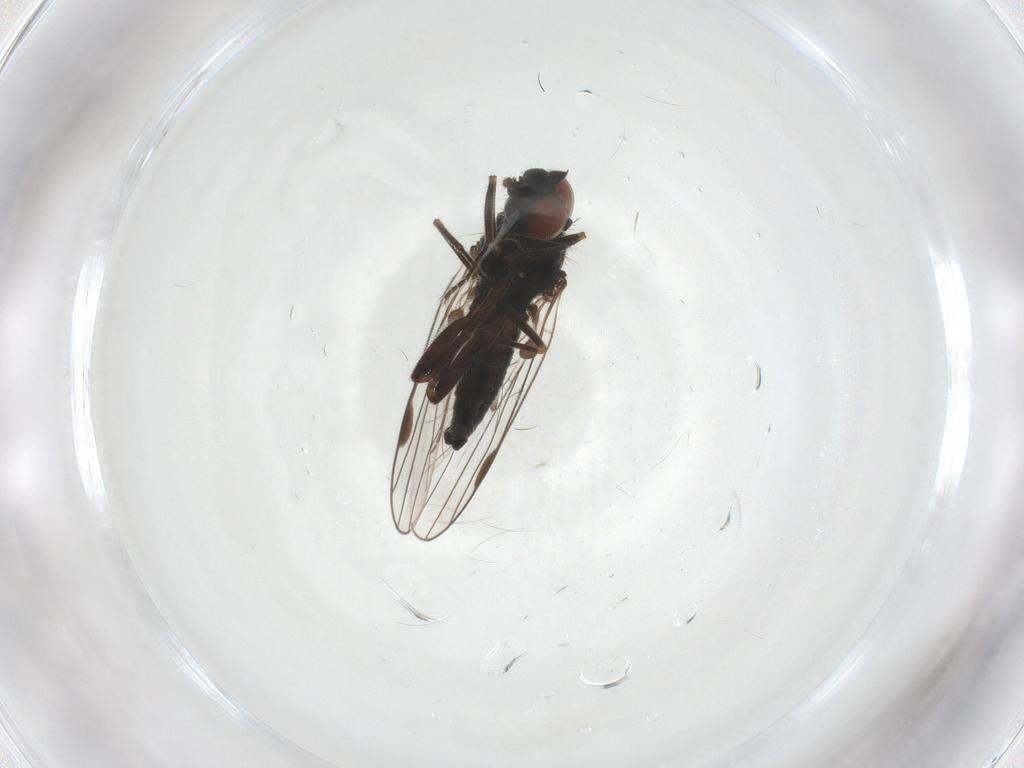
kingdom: Animalia
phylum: Arthropoda
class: Insecta
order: Diptera
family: Muscidae
